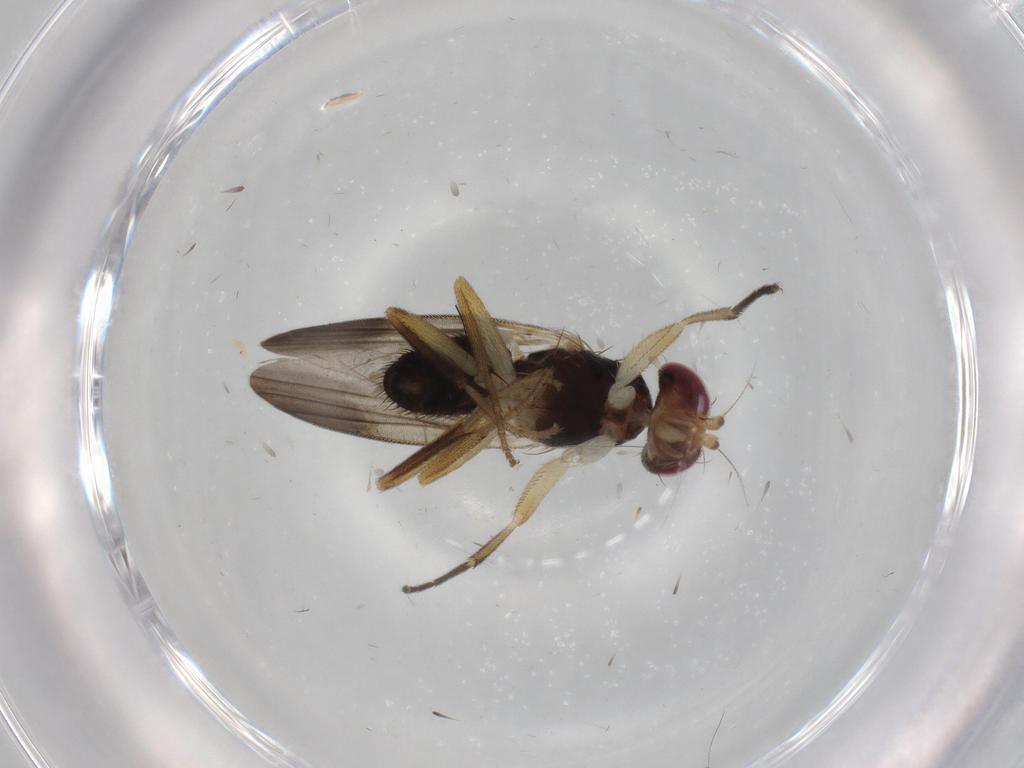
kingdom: Animalia
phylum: Arthropoda
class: Insecta
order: Diptera
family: Clusiidae
